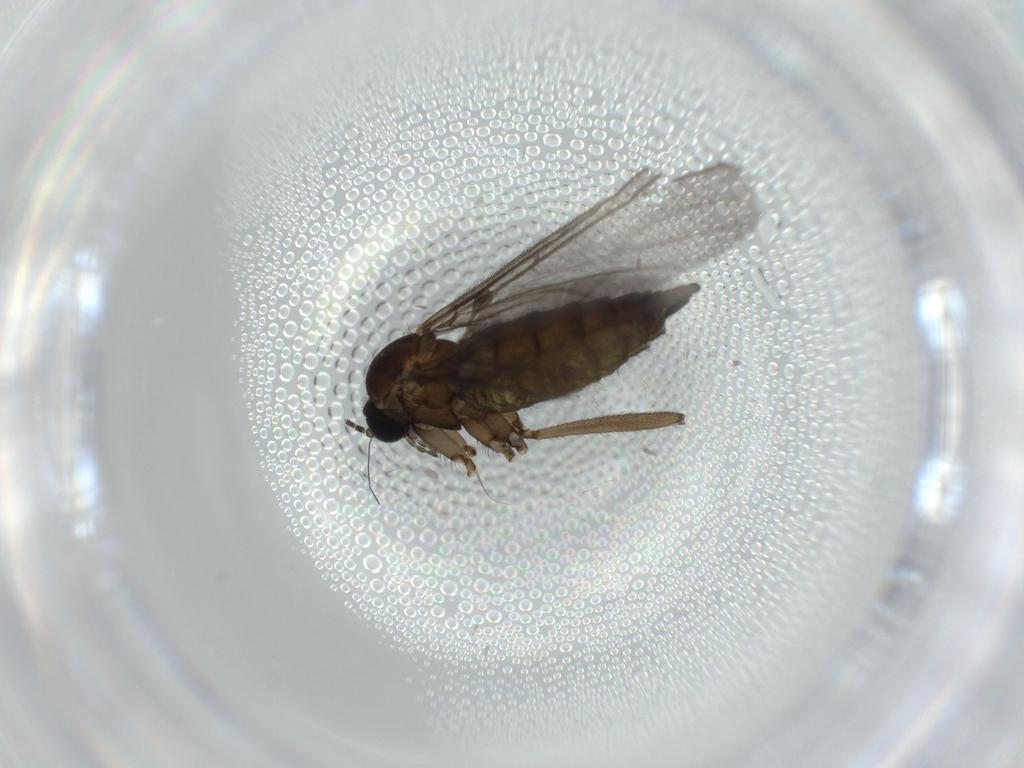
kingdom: Animalia
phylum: Arthropoda
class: Insecta
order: Diptera
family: Sciaridae
